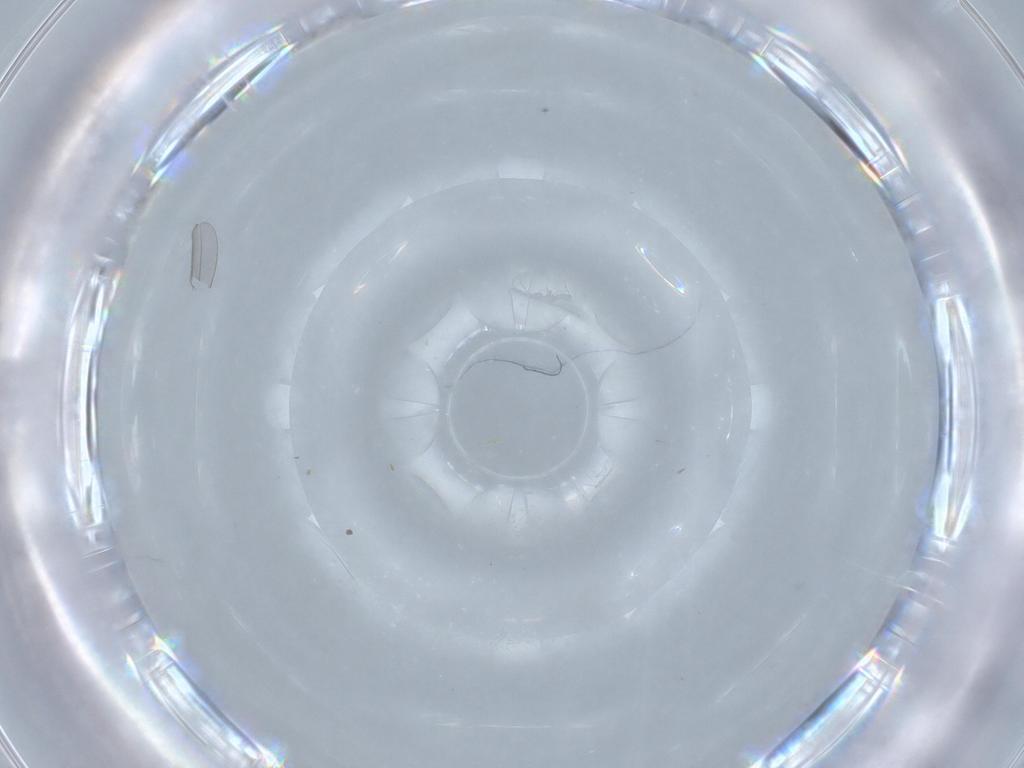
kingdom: Animalia
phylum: Arthropoda
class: Insecta
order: Hymenoptera
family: Diapriidae
